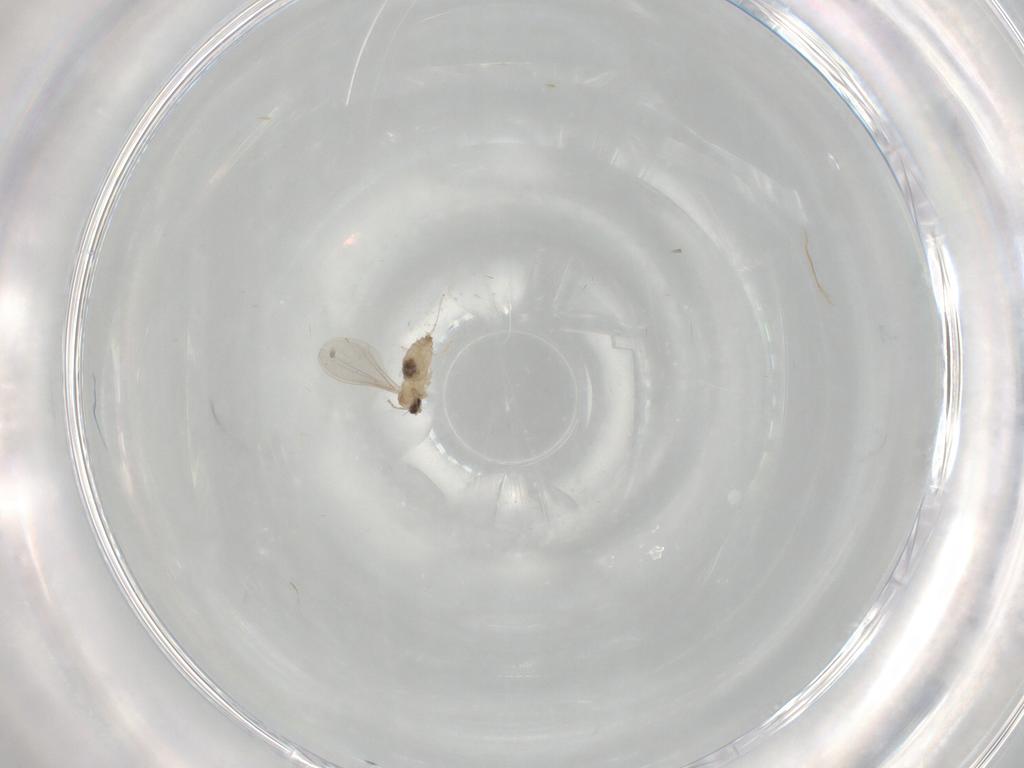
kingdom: Animalia
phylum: Arthropoda
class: Insecta
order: Diptera
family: Cecidomyiidae
